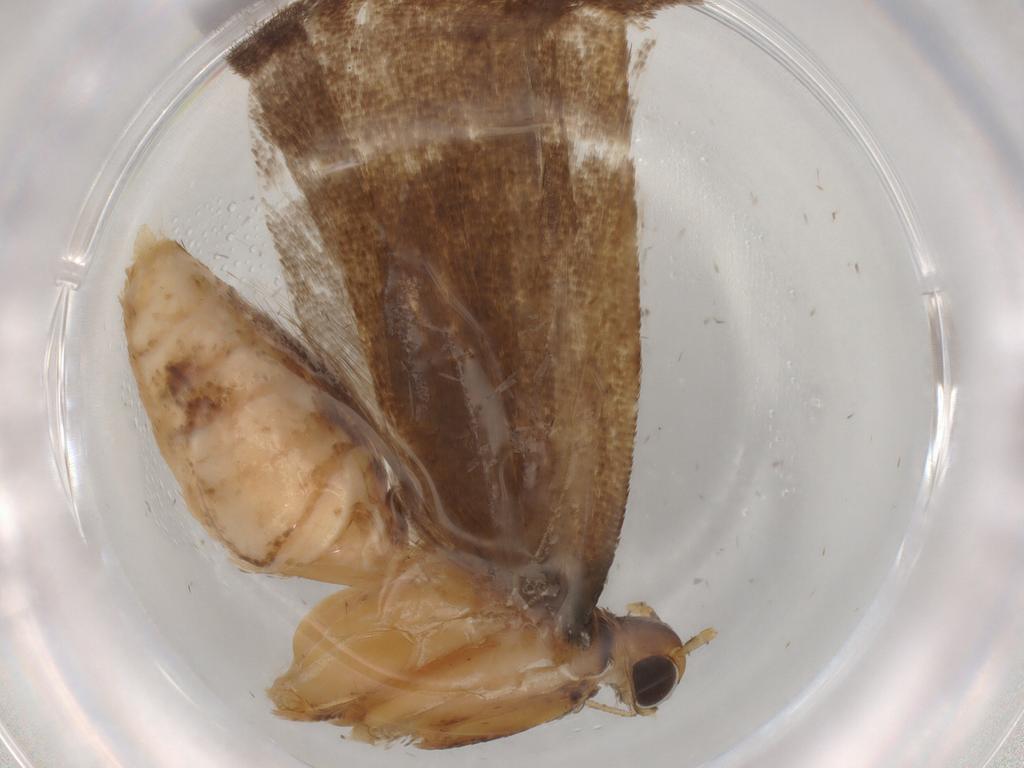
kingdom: Animalia
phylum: Arthropoda
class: Insecta
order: Lepidoptera
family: Gelechiidae
